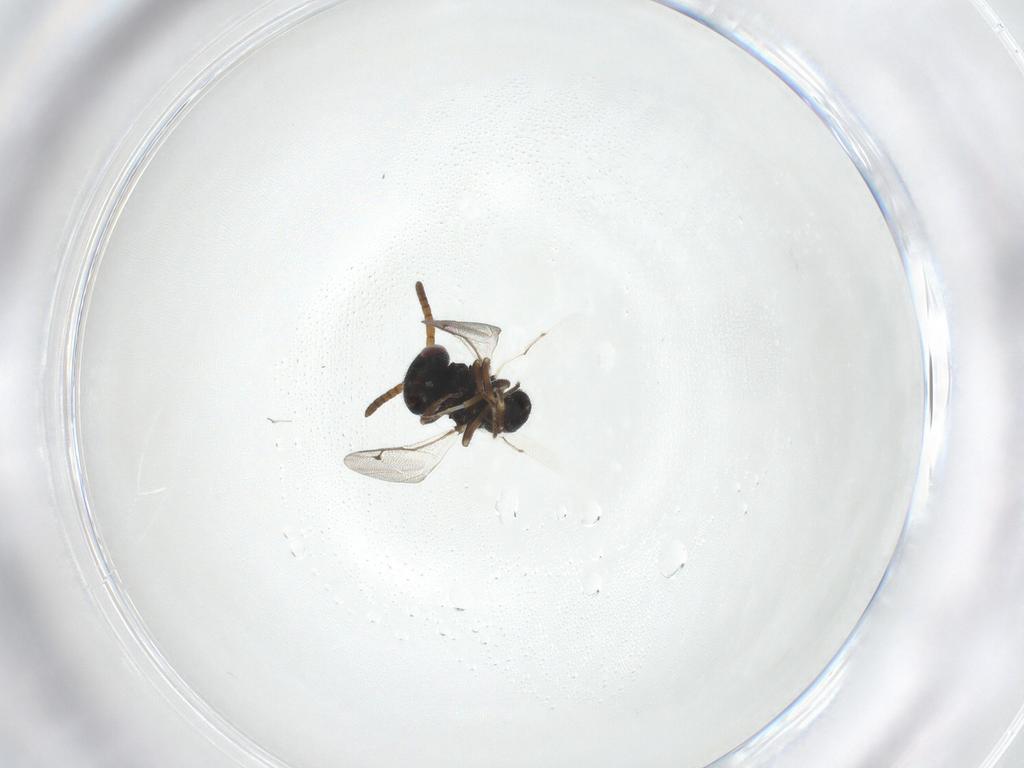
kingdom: Animalia
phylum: Arthropoda
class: Insecta
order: Hymenoptera
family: Pteromalidae
